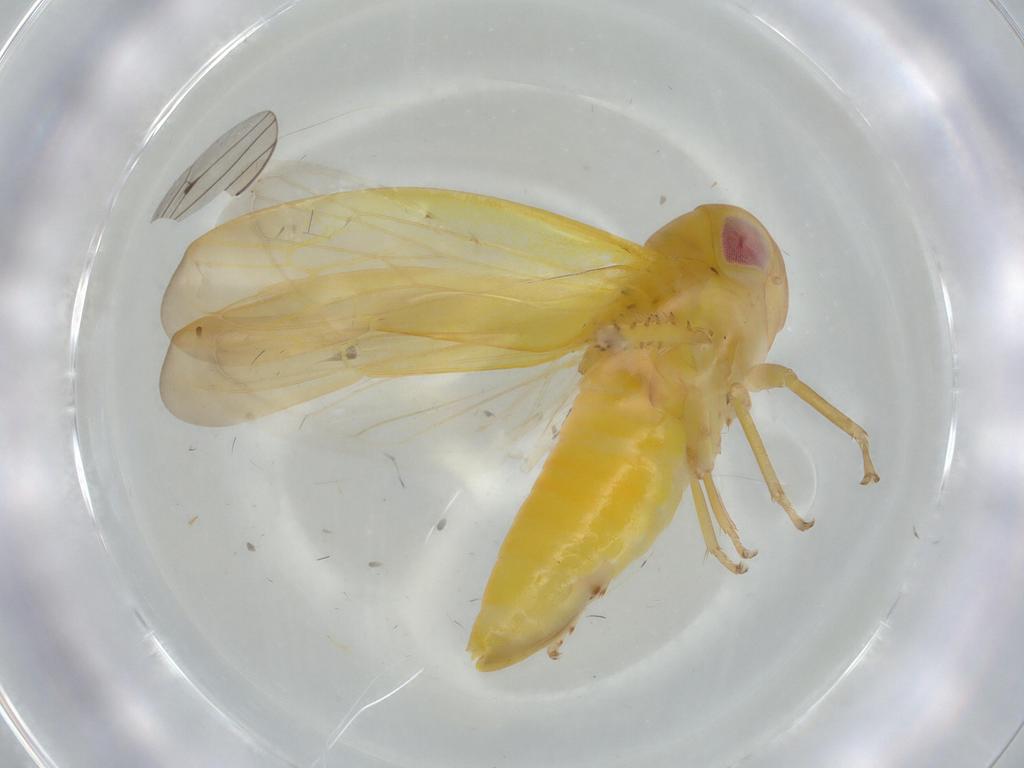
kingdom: Animalia
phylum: Arthropoda
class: Insecta
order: Hemiptera
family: Cicadellidae
